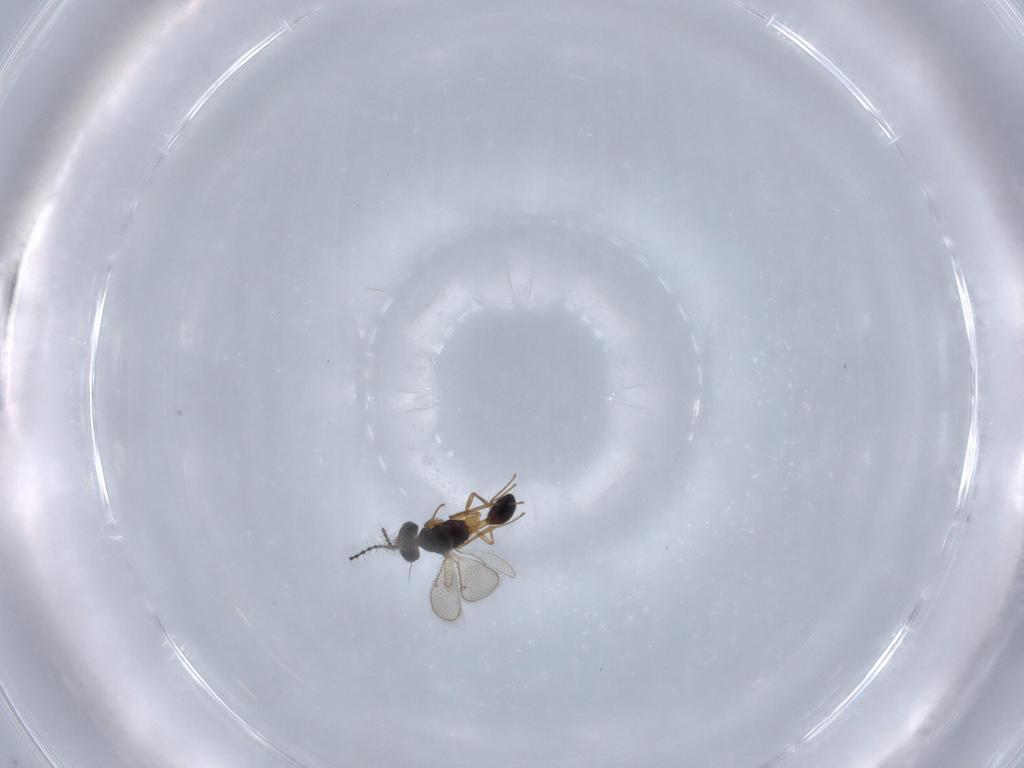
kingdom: Animalia
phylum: Arthropoda
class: Insecta
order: Hymenoptera
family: Diparidae
